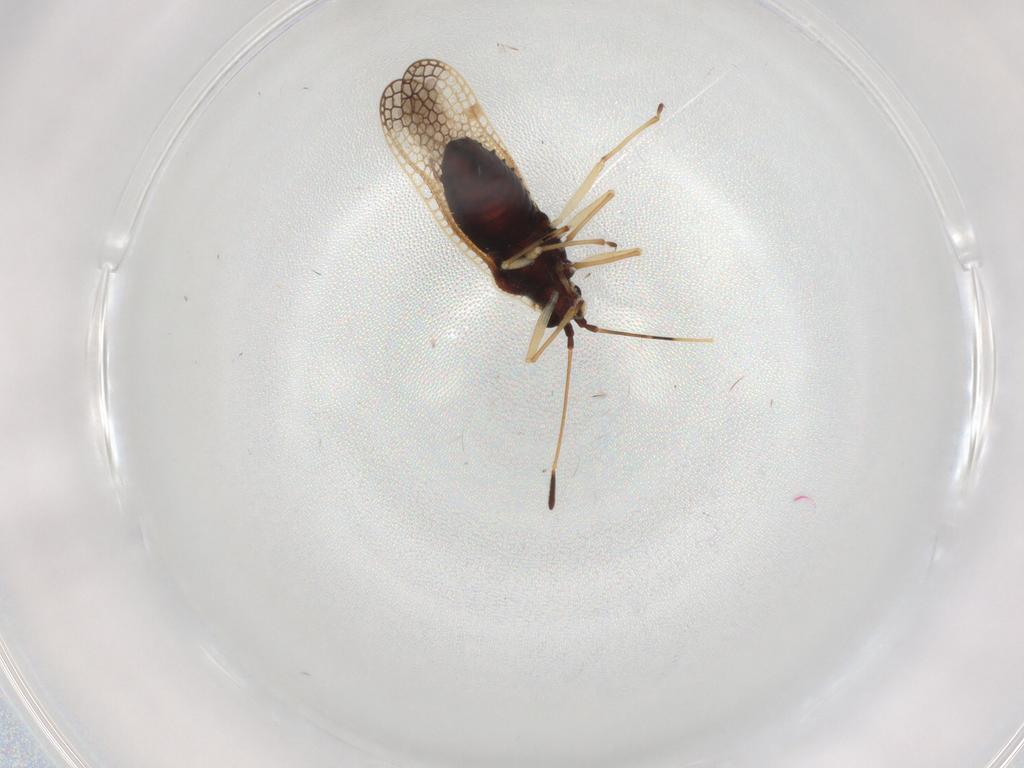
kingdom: Animalia
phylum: Arthropoda
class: Insecta
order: Hemiptera
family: Tingidae
